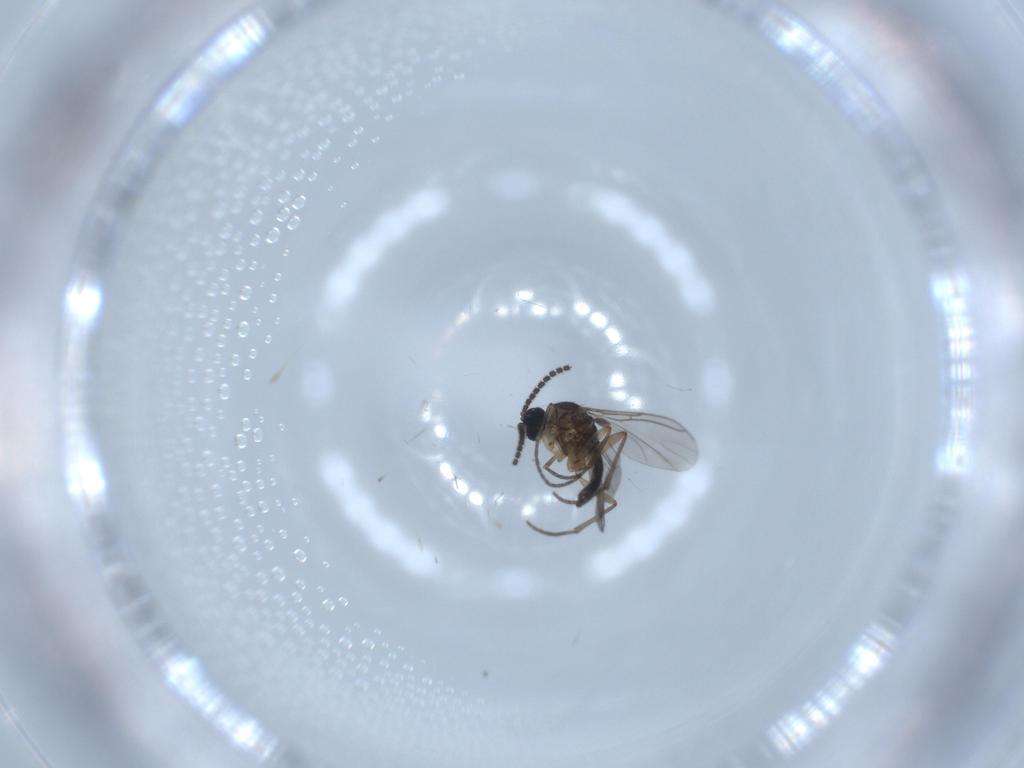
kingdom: Animalia
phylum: Arthropoda
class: Insecta
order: Diptera
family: Sciaridae
